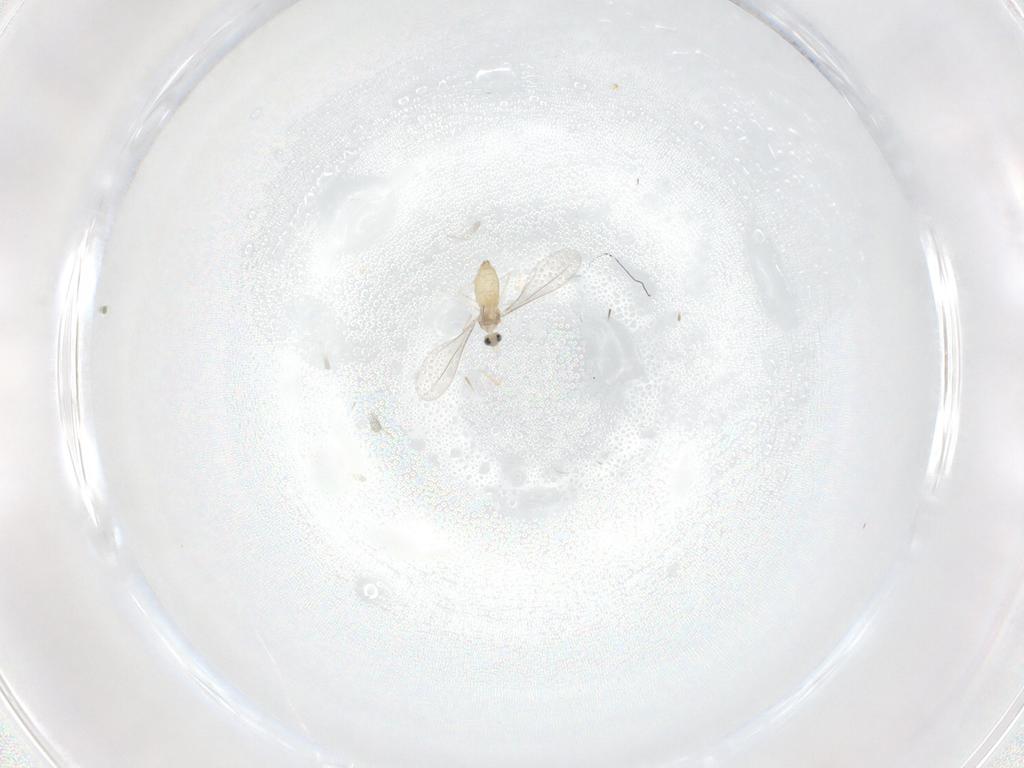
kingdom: Animalia
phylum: Arthropoda
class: Insecta
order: Diptera
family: Cecidomyiidae
